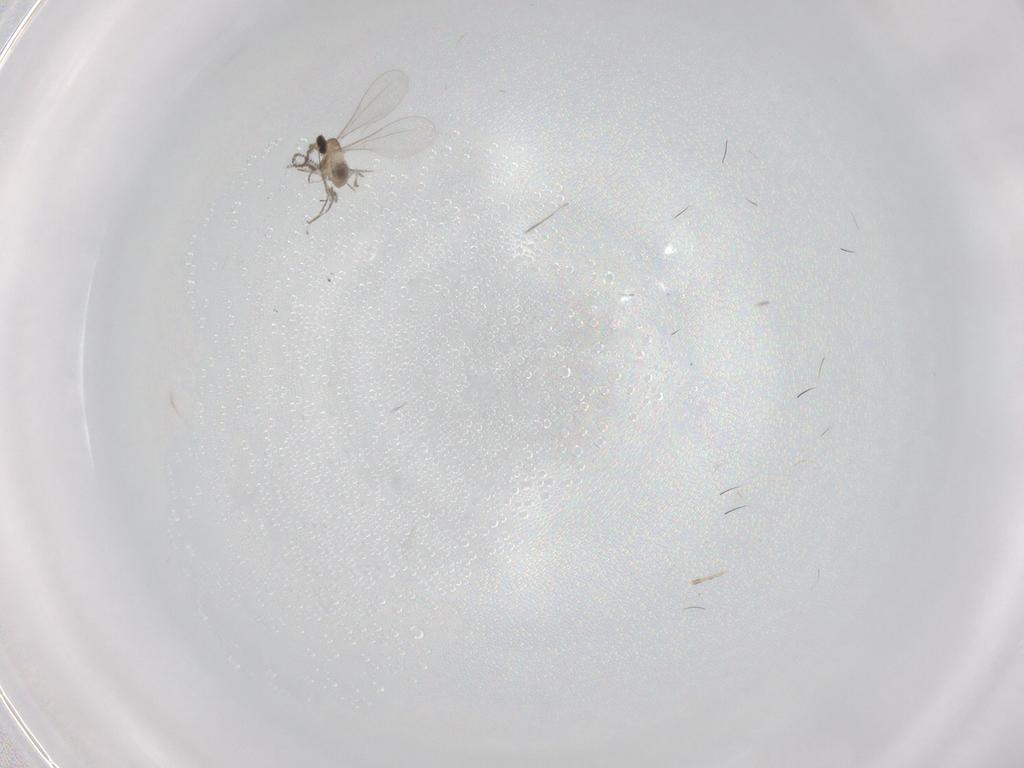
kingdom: Animalia
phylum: Arthropoda
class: Insecta
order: Diptera
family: Cecidomyiidae
